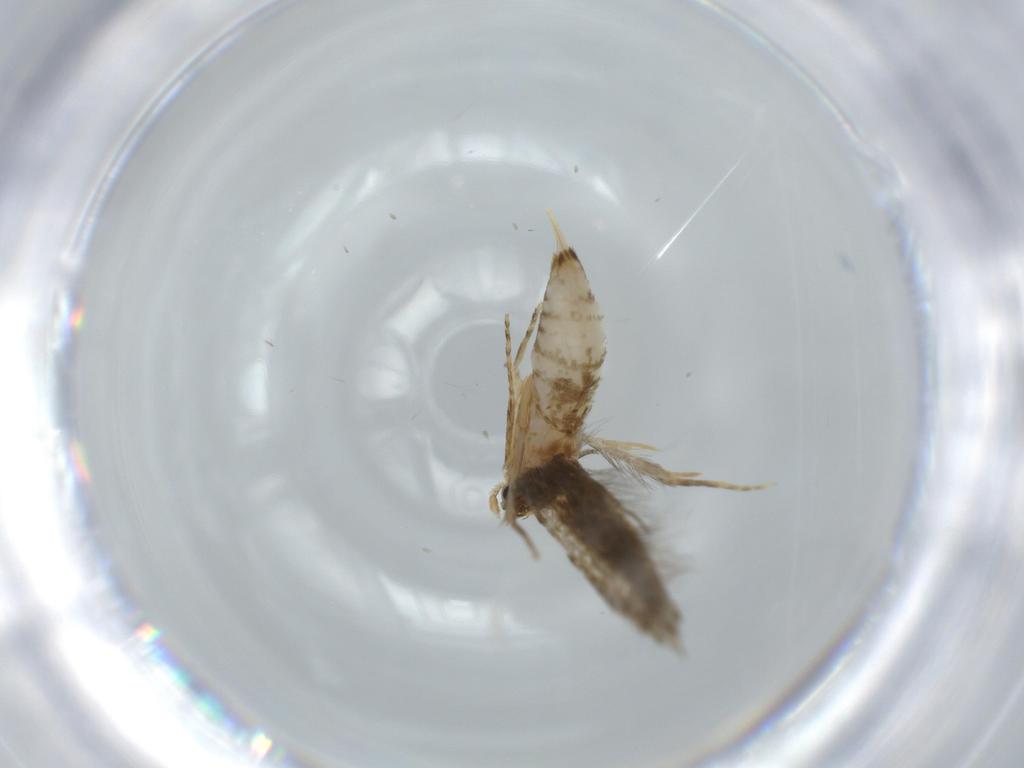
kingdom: Animalia
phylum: Arthropoda
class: Insecta
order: Lepidoptera
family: Tineidae
